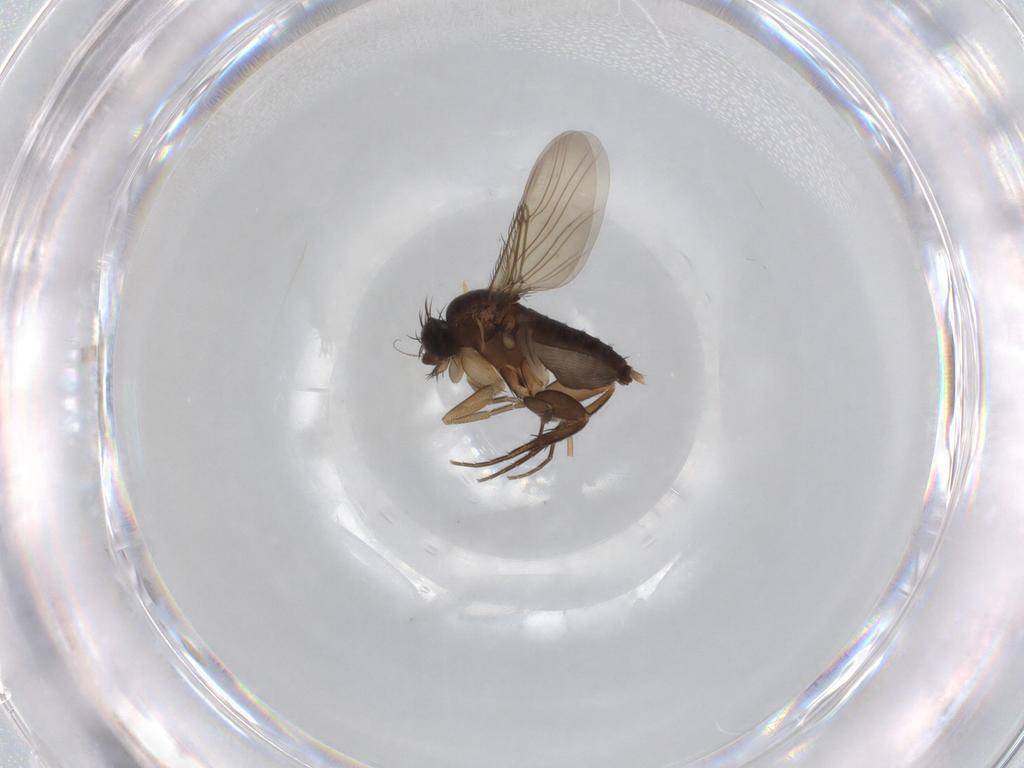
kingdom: Animalia
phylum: Arthropoda
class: Insecta
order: Diptera
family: Phoridae
